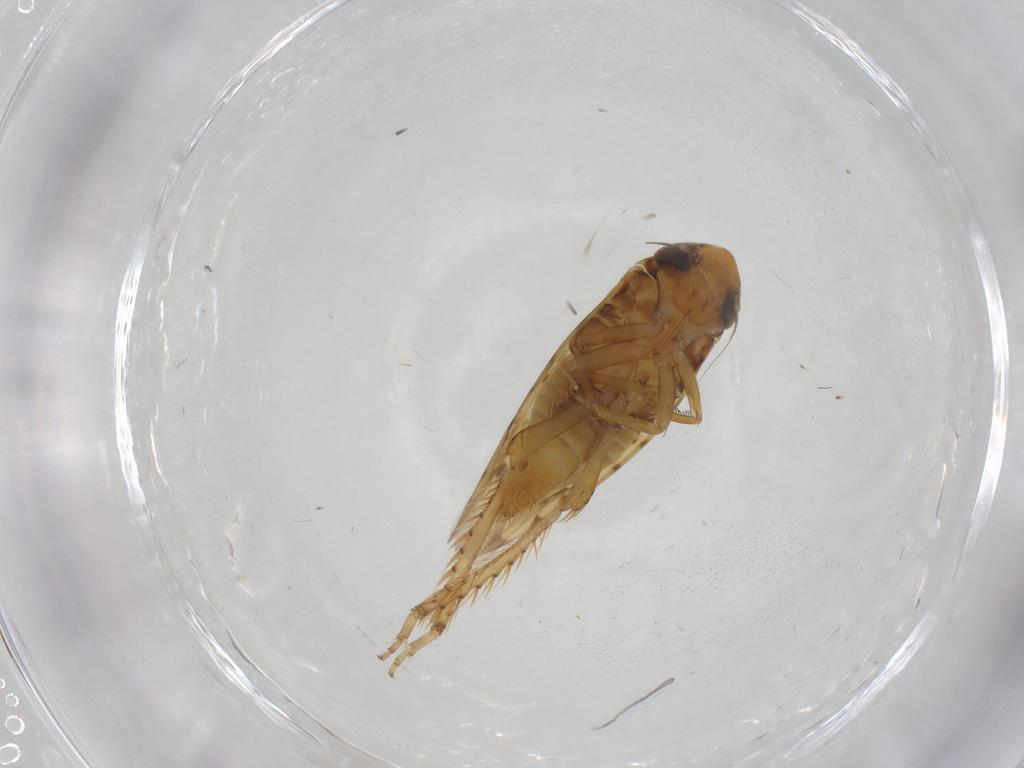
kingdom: Animalia
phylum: Arthropoda
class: Insecta
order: Hemiptera
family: Cicadellidae
